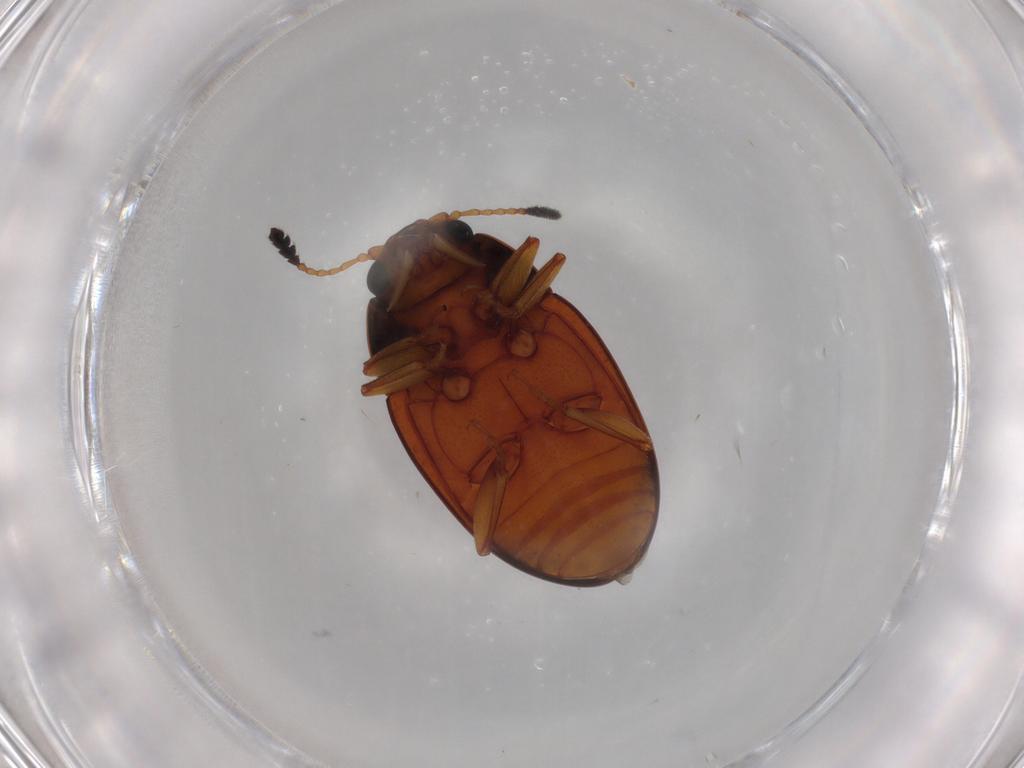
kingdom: Animalia
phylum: Arthropoda
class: Insecta
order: Coleoptera
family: Erotylidae
